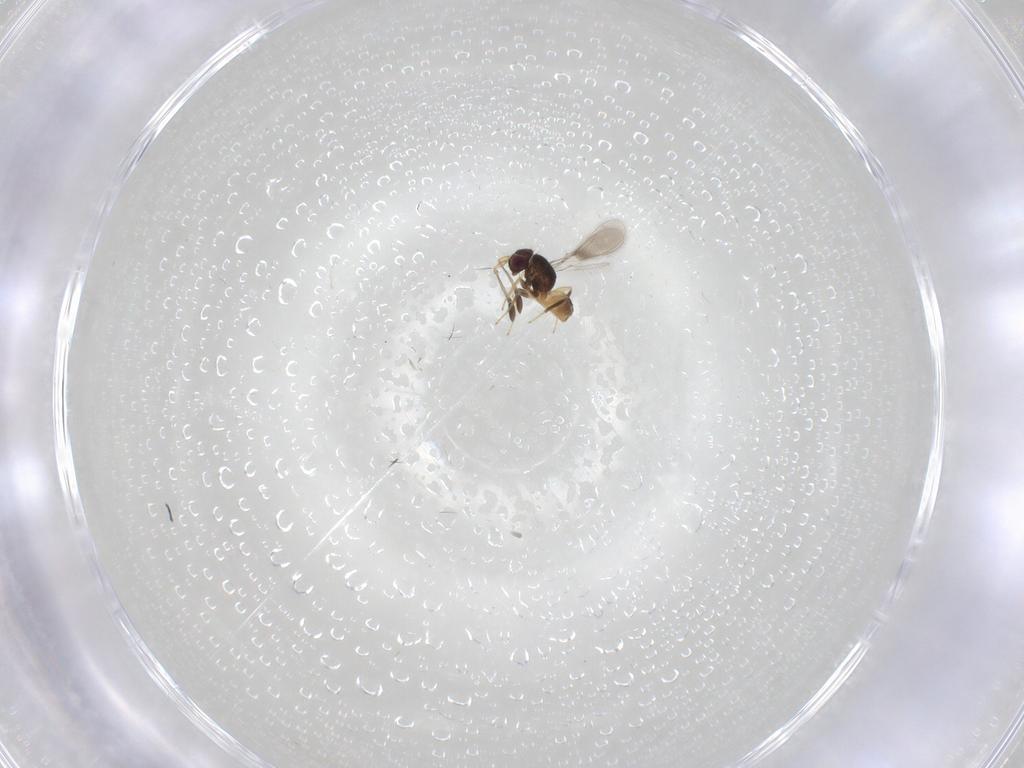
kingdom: Animalia
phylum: Arthropoda
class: Insecta
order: Hymenoptera
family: Mymaridae
